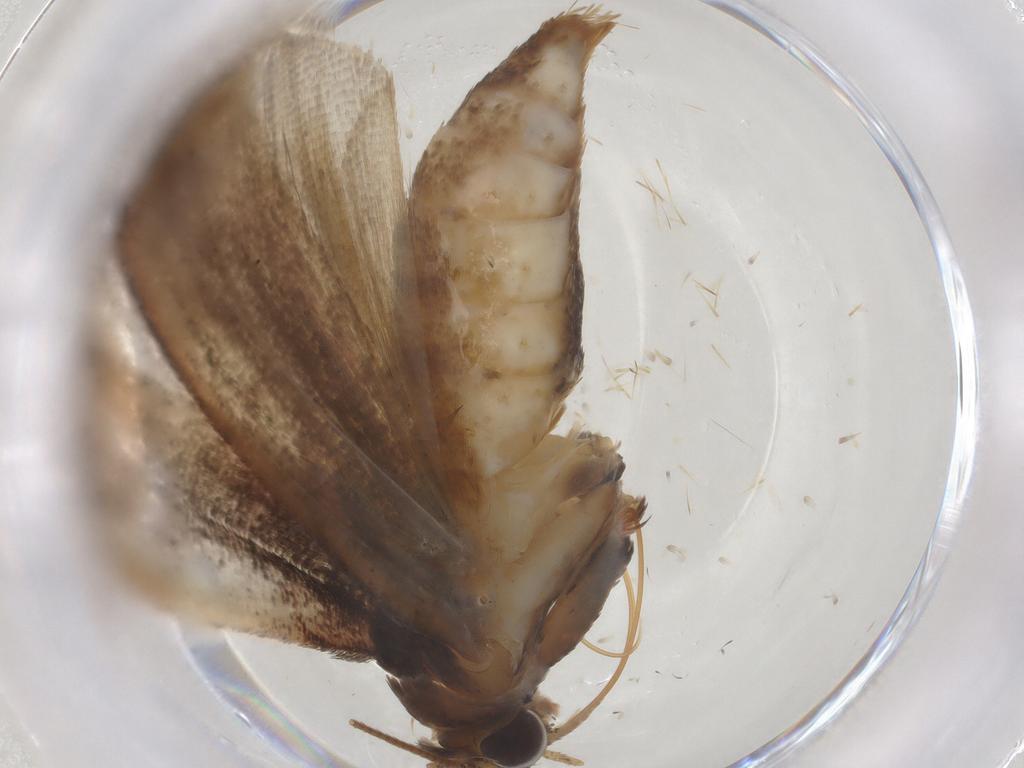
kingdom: Animalia
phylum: Arthropoda
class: Insecta
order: Lepidoptera
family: Pyralidae
